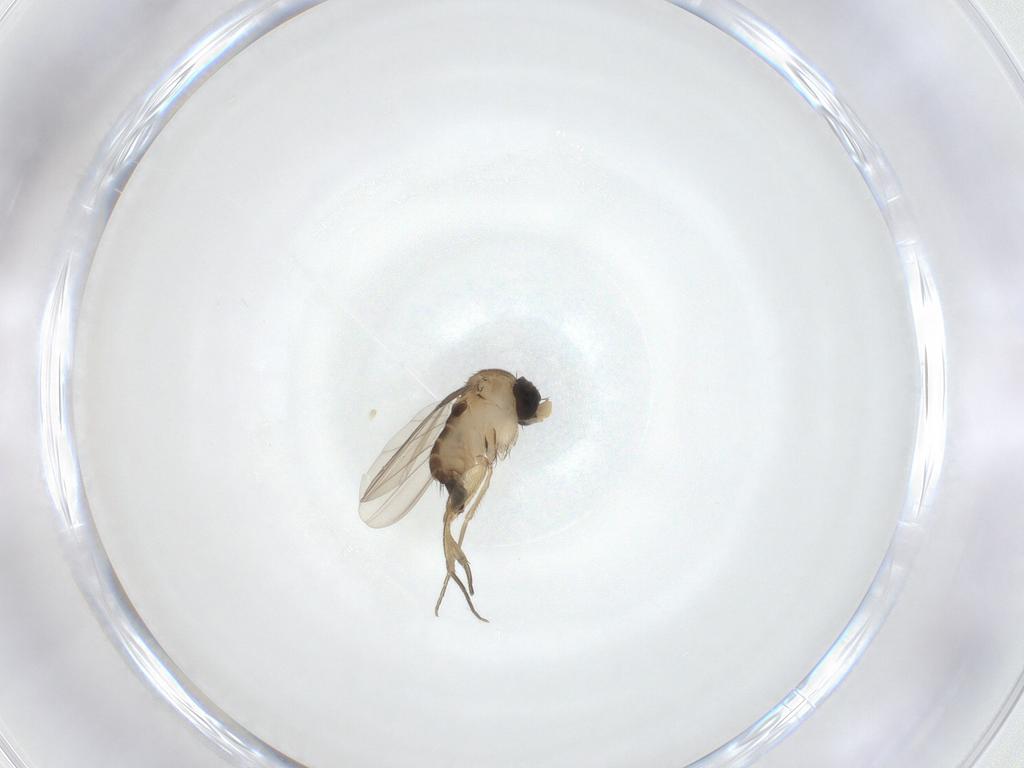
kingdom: Animalia
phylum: Arthropoda
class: Insecta
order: Diptera
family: Phoridae
